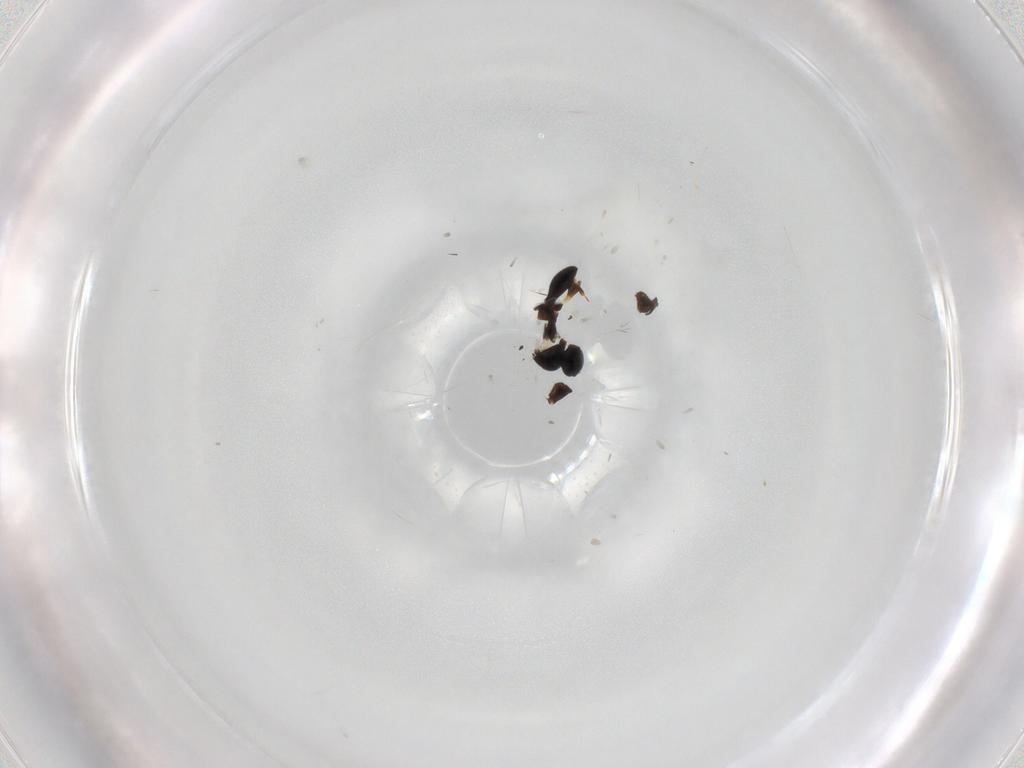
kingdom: Animalia
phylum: Arthropoda
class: Insecta
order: Hymenoptera
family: Platygastridae
